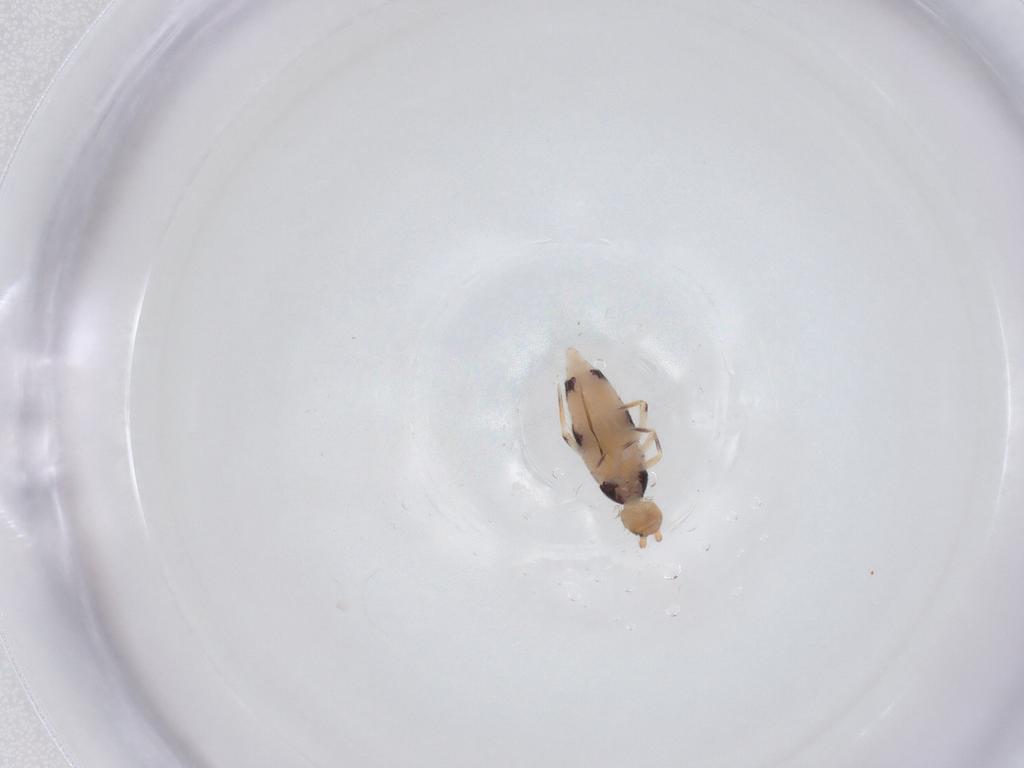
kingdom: Animalia
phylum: Arthropoda
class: Collembola
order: Entomobryomorpha
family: Entomobryidae
